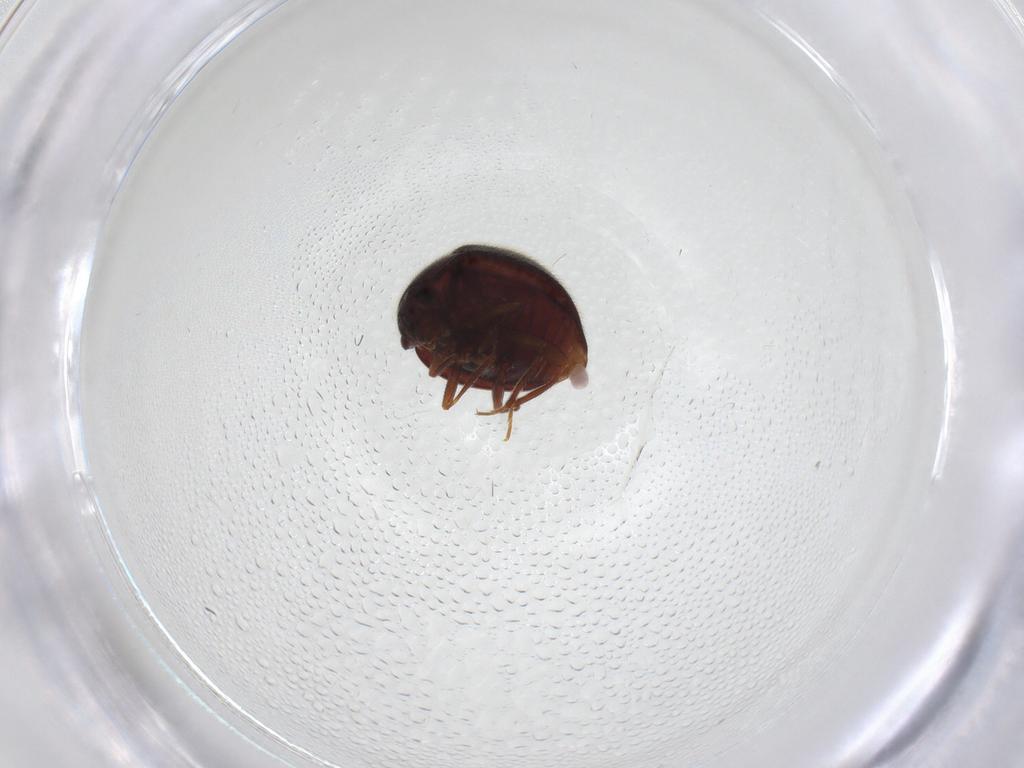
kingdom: Animalia
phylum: Arthropoda
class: Insecta
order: Coleoptera
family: Anamorphidae
